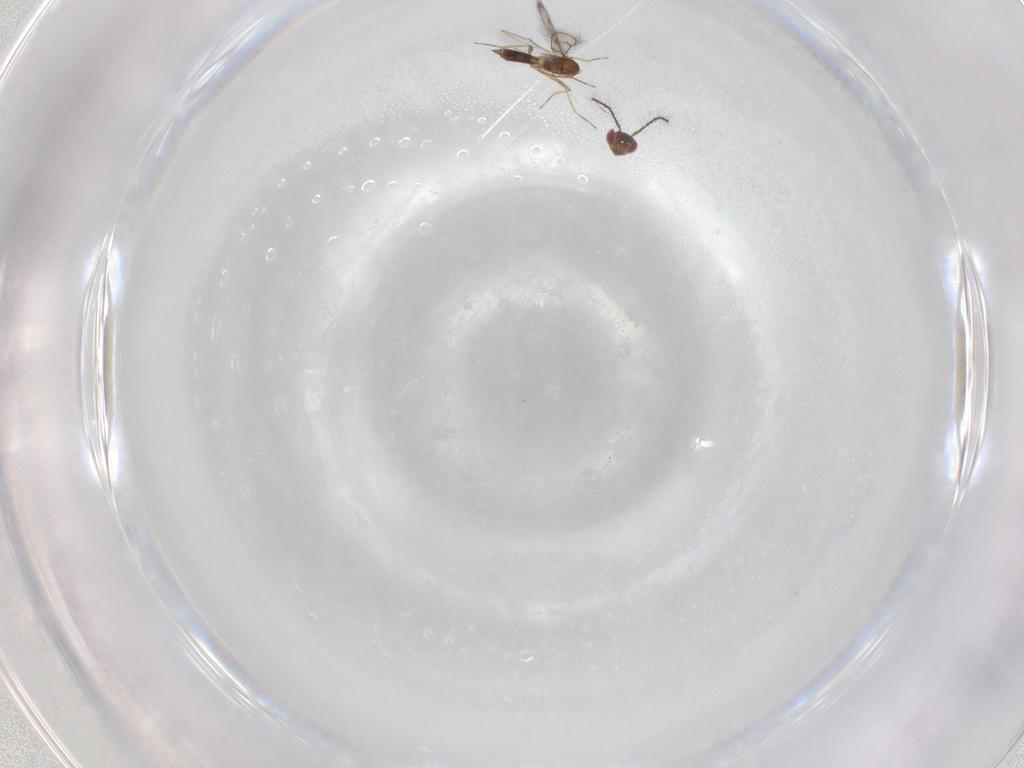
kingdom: Animalia
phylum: Arthropoda
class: Insecta
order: Hymenoptera
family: Eulophidae
